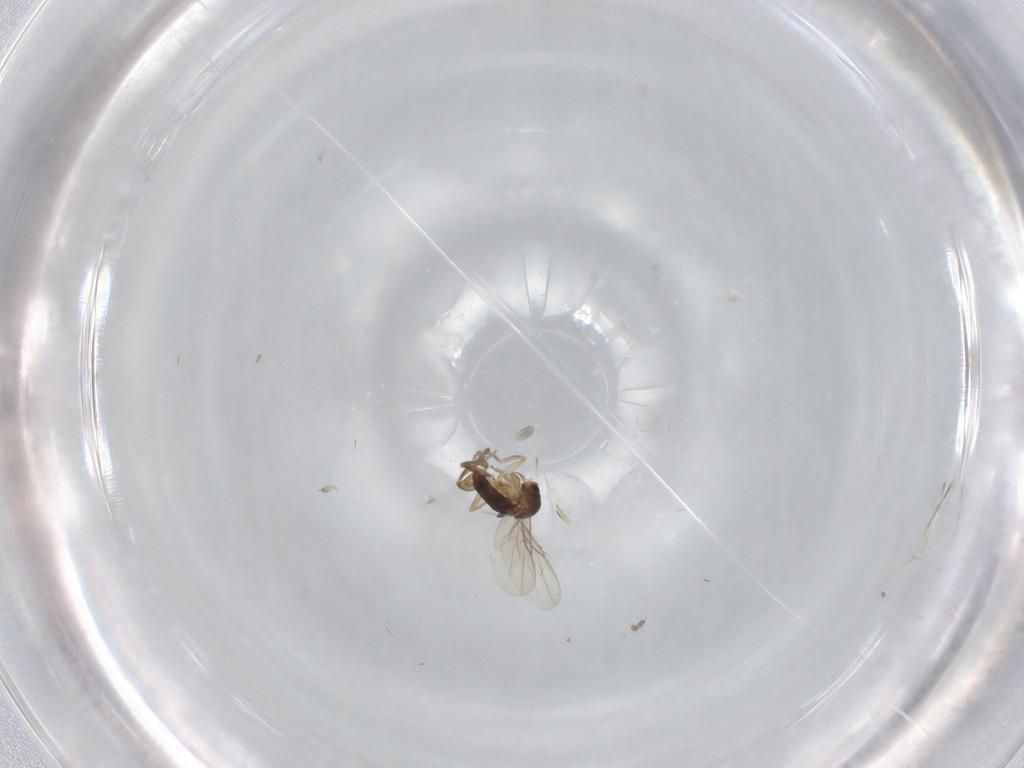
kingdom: Animalia
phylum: Arthropoda
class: Insecta
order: Diptera
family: Phoridae
